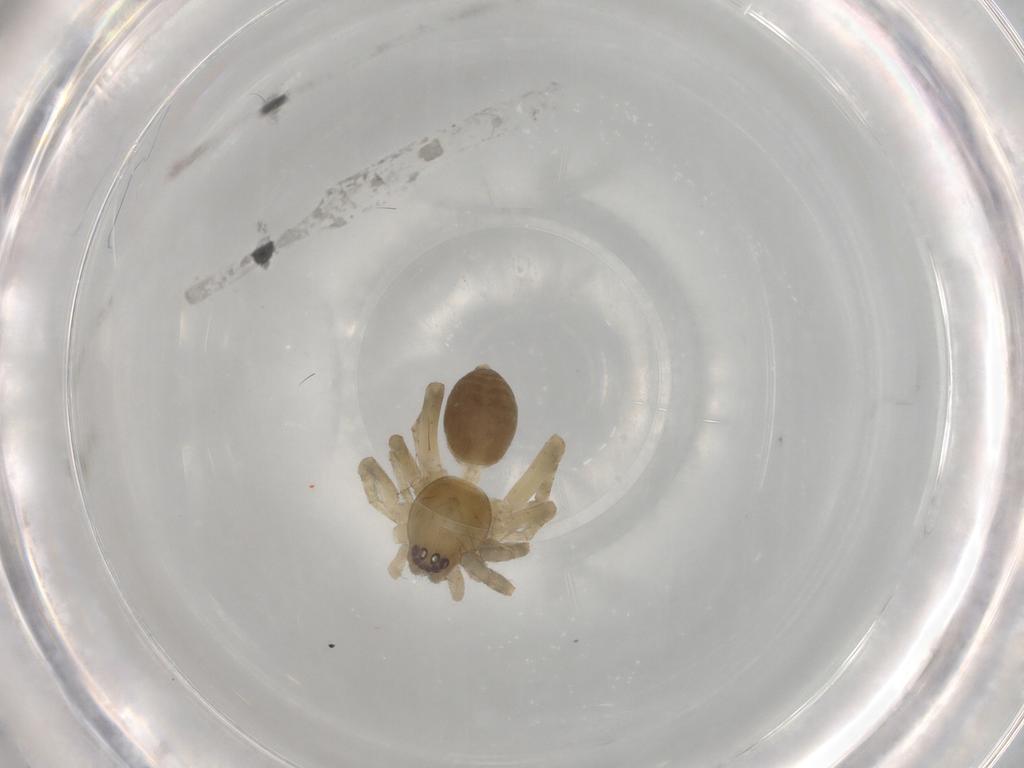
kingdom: Animalia
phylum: Arthropoda
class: Arachnida
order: Araneae
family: Anyphaenidae
